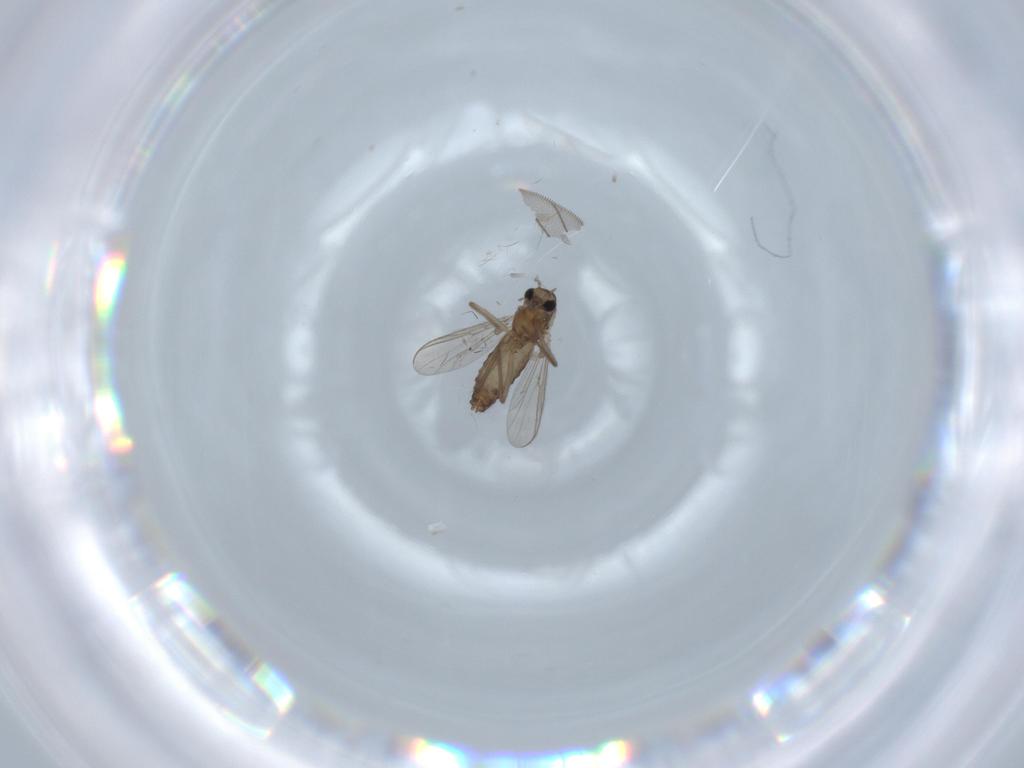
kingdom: Animalia
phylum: Arthropoda
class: Insecta
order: Diptera
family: Chironomidae
